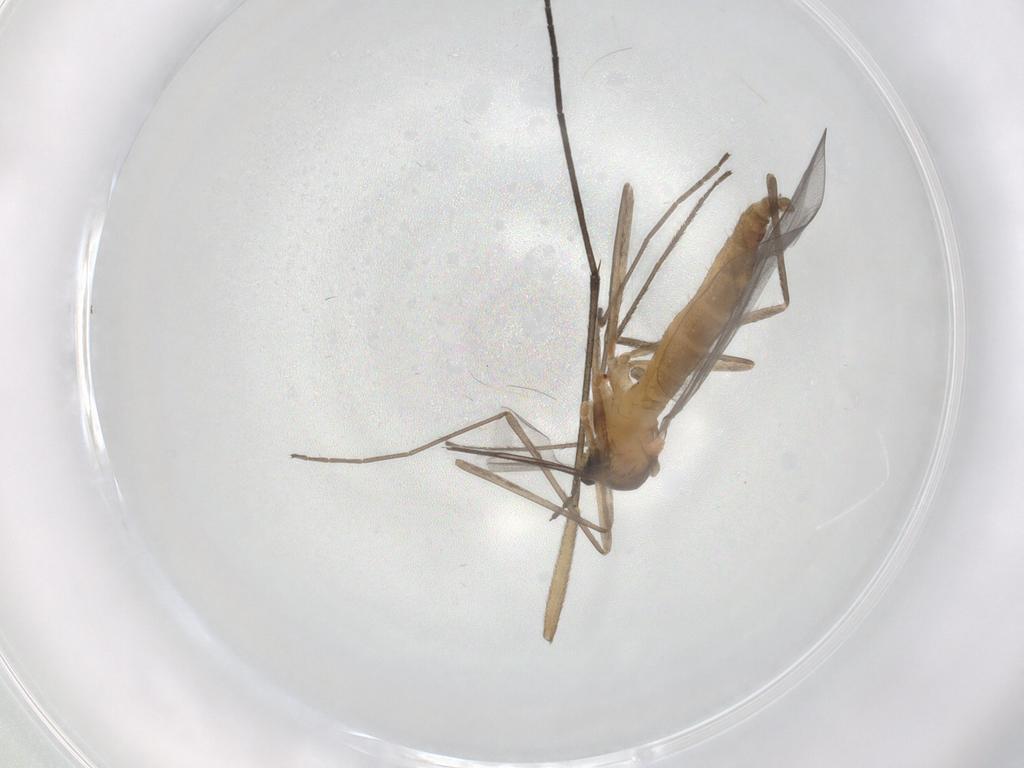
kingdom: Animalia
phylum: Arthropoda
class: Insecta
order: Diptera
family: Cecidomyiidae
